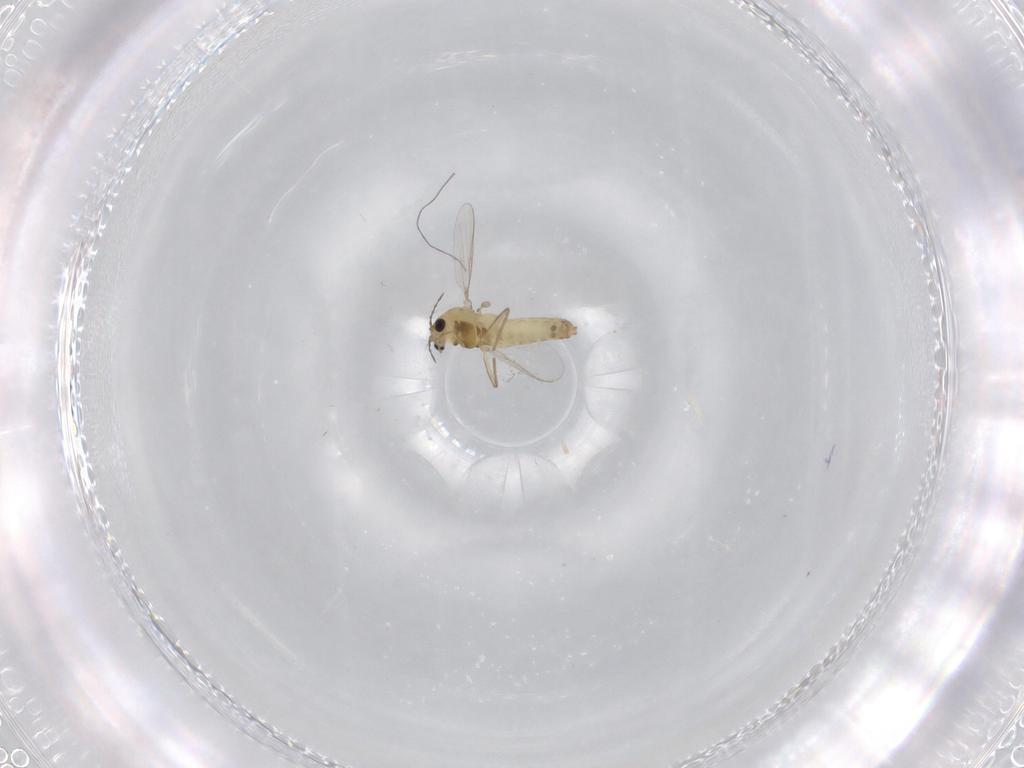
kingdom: Animalia
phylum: Arthropoda
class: Insecta
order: Diptera
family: Chironomidae
